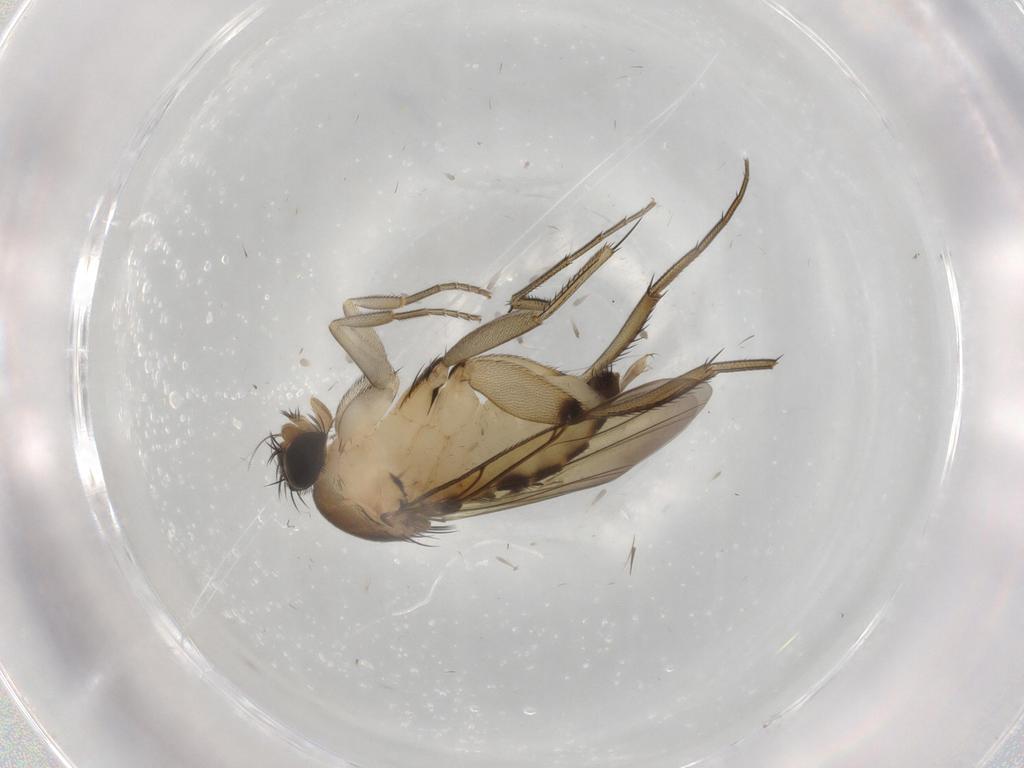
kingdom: Animalia
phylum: Arthropoda
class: Insecta
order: Diptera
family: Phoridae
